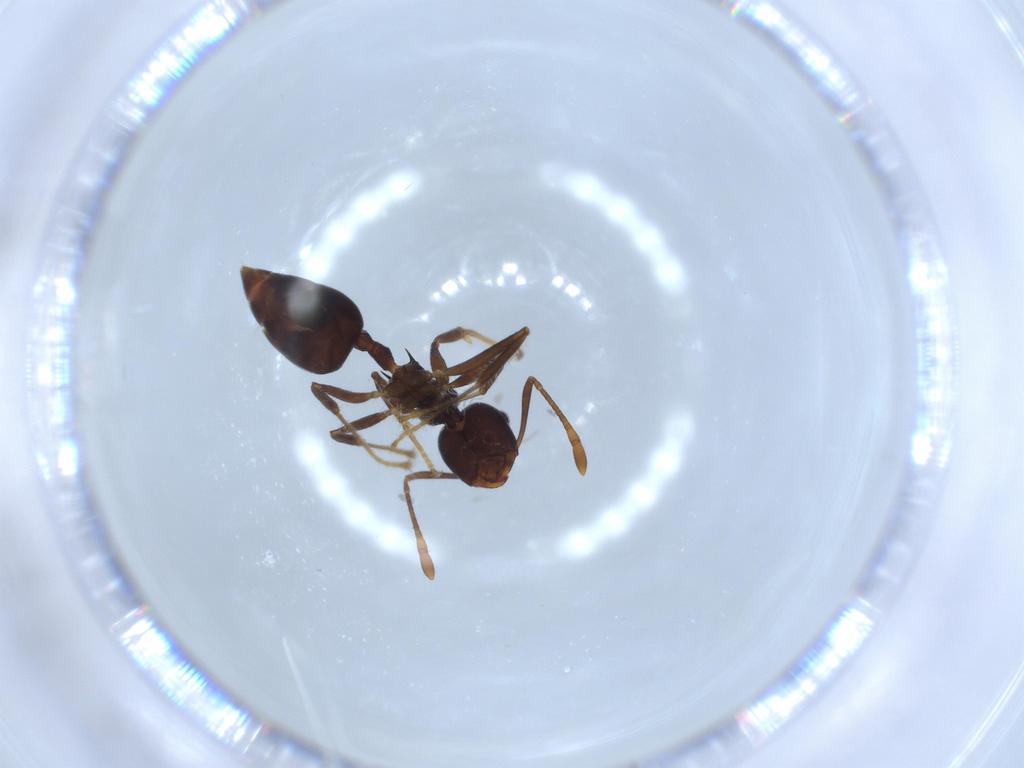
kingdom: Animalia
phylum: Arthropoda
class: Insecta
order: Hymenoptera
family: Formicidae
